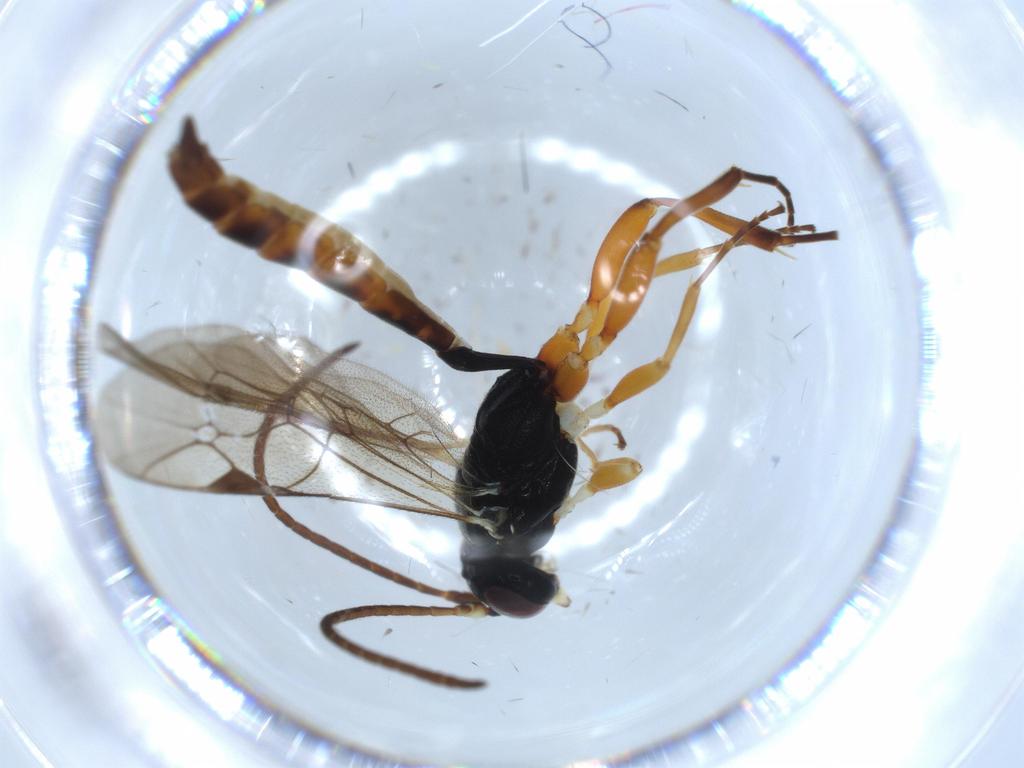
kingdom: Animalia
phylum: Arthropoda
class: Insecta
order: Hymenoptera
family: Ichneumonidae
